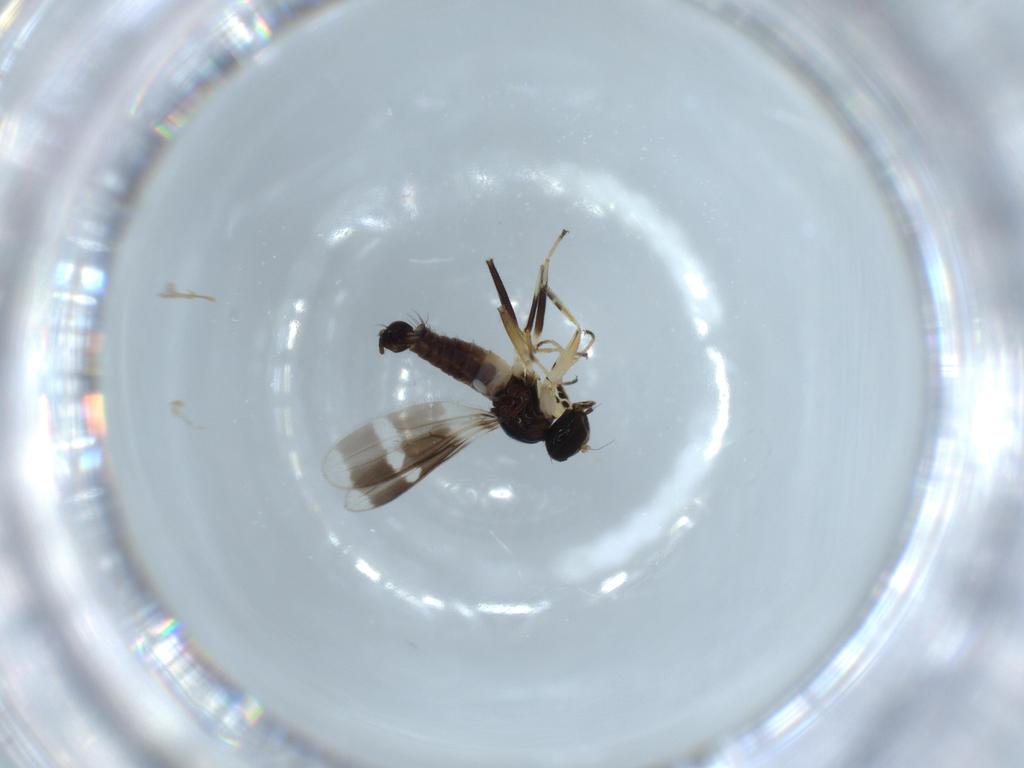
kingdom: Animalia
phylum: Arthropoda
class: Insecta
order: Diptera
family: Hybotidae
